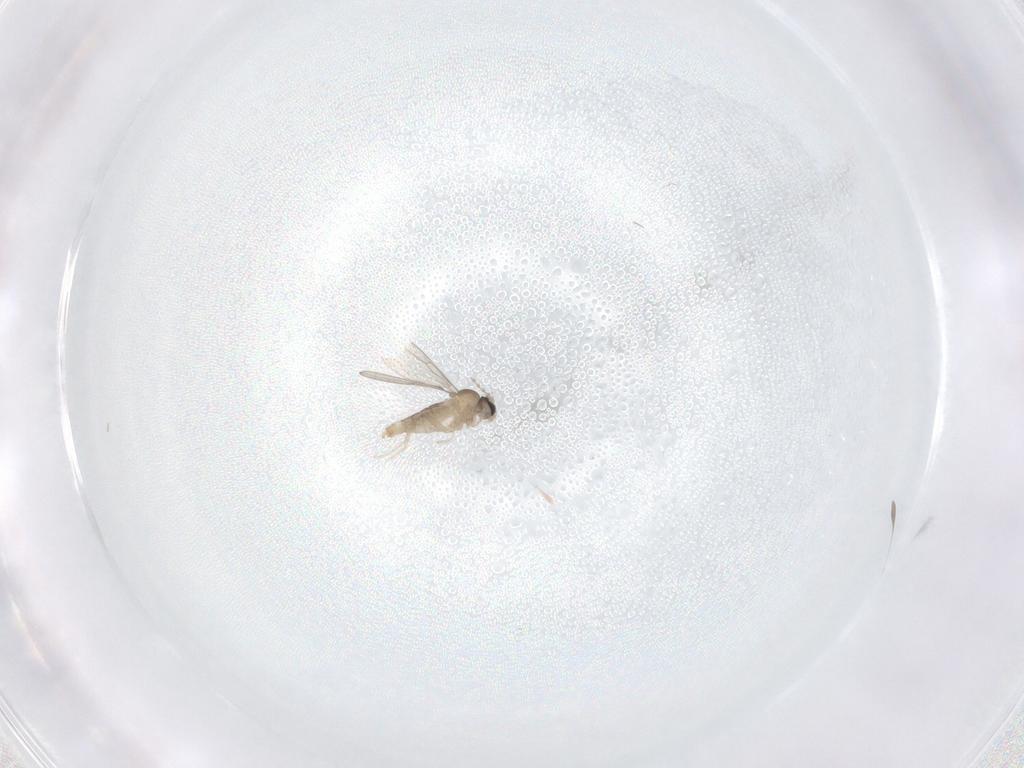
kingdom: Animalia
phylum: Arthropoda
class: Insecta
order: Diptera
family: Cecidomyiidae
